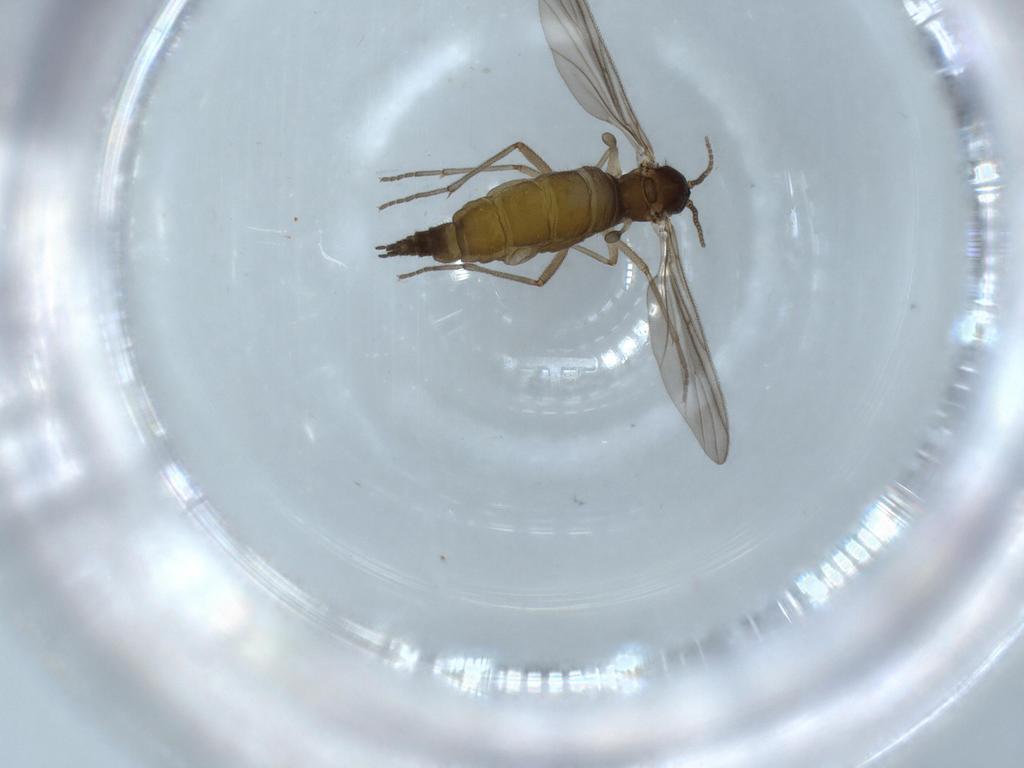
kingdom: Animalia
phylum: Arthropoda
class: Insecta
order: Diptera
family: Sciaridae
